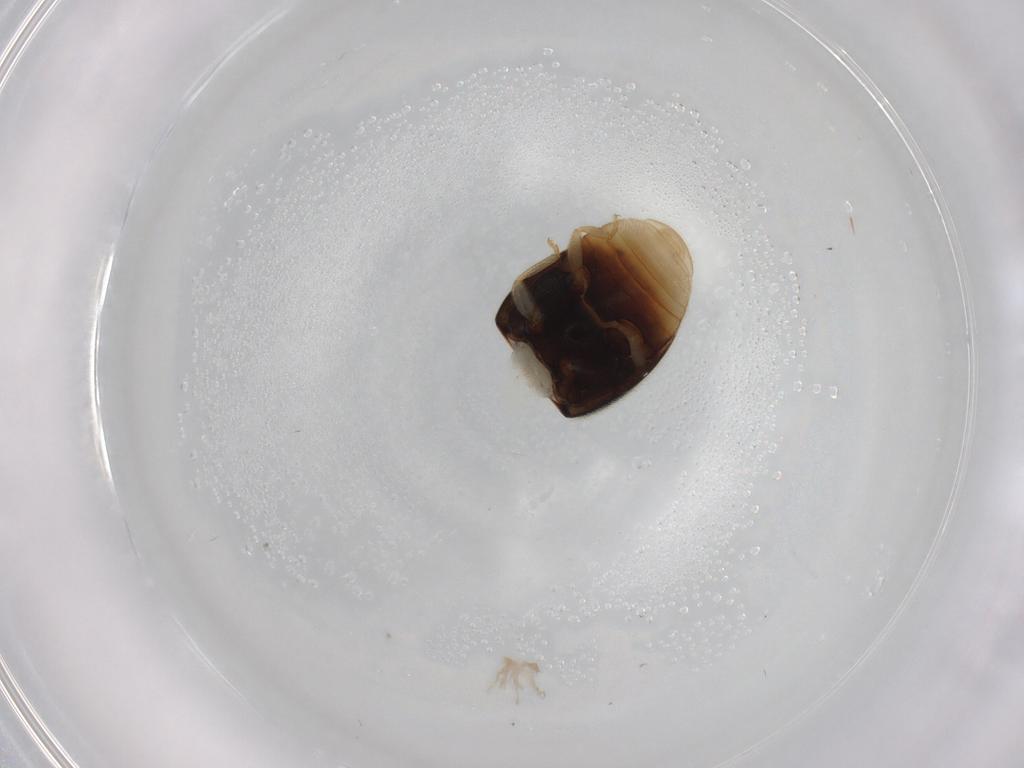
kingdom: Animalia
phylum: Arthropoda
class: Insecta
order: Coleoptera
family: Coccinellidae
